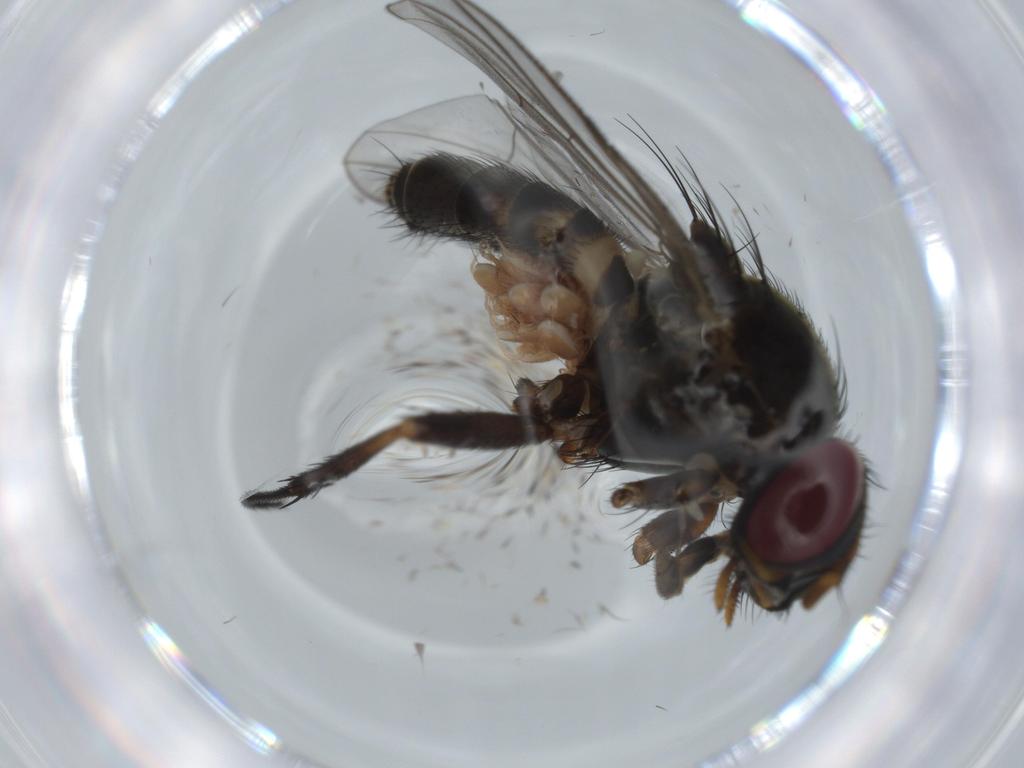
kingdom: Animalia
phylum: Arthropoda
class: Insecta
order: Diptera
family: Fannia
